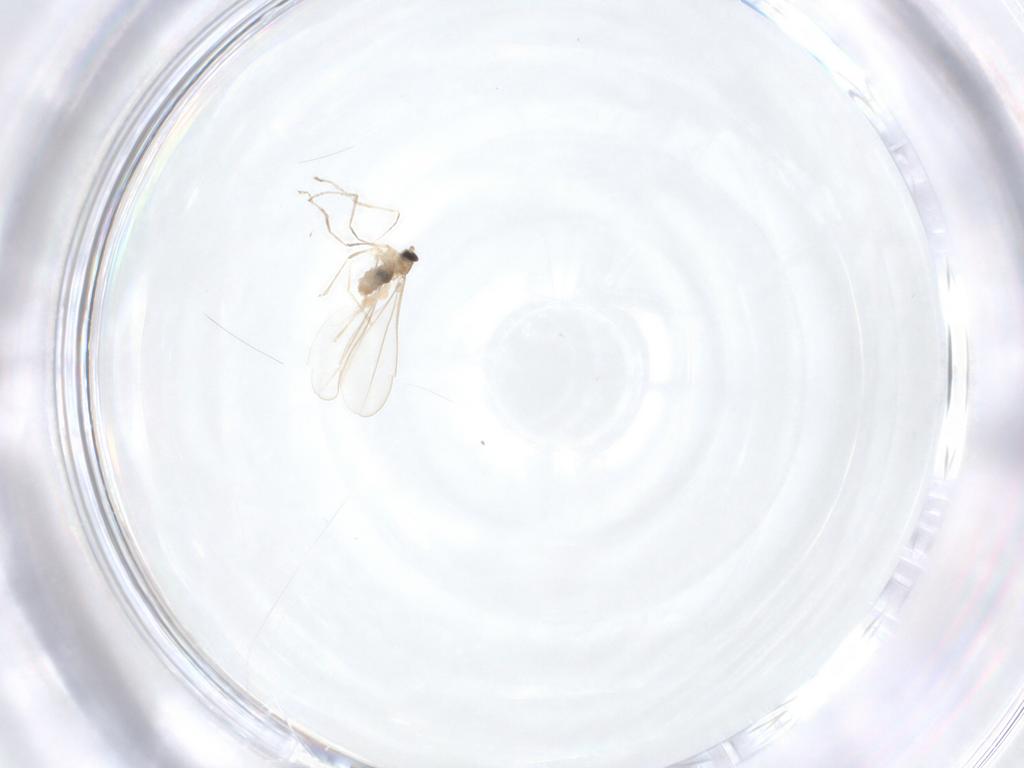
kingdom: Animalia
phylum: Arthropoda
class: Insecta
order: Diptera
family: Cecidomyiidae
